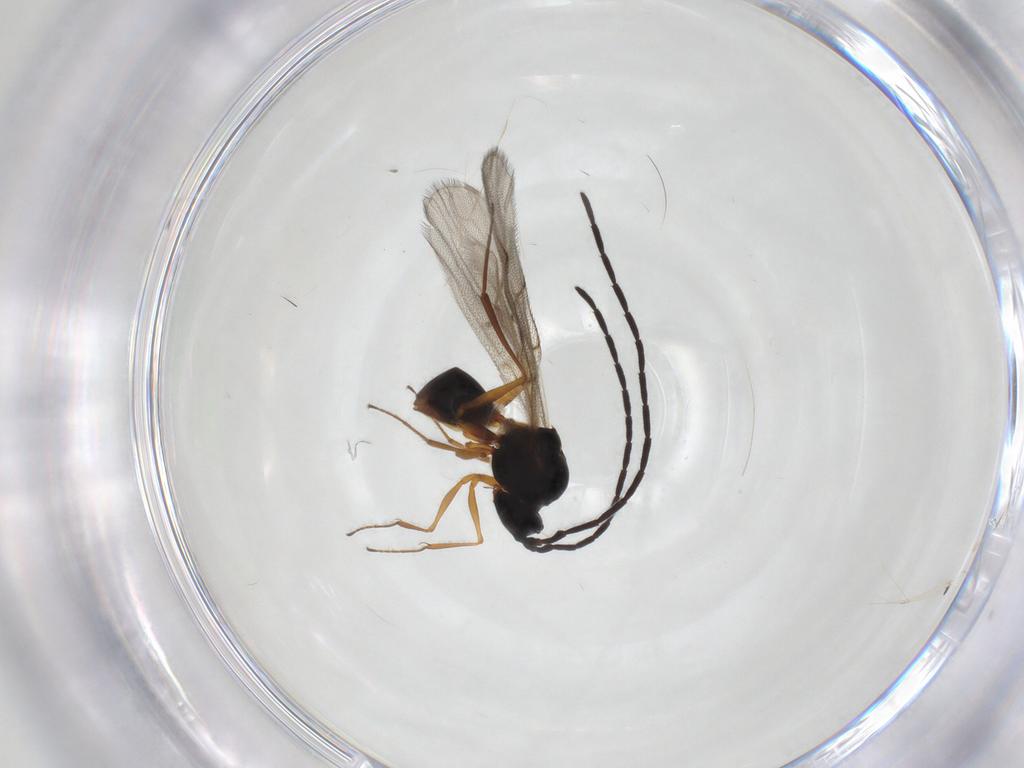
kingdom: Animalia
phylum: Arthropoda
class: Insecta
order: Hymenoptera
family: Figitidae
